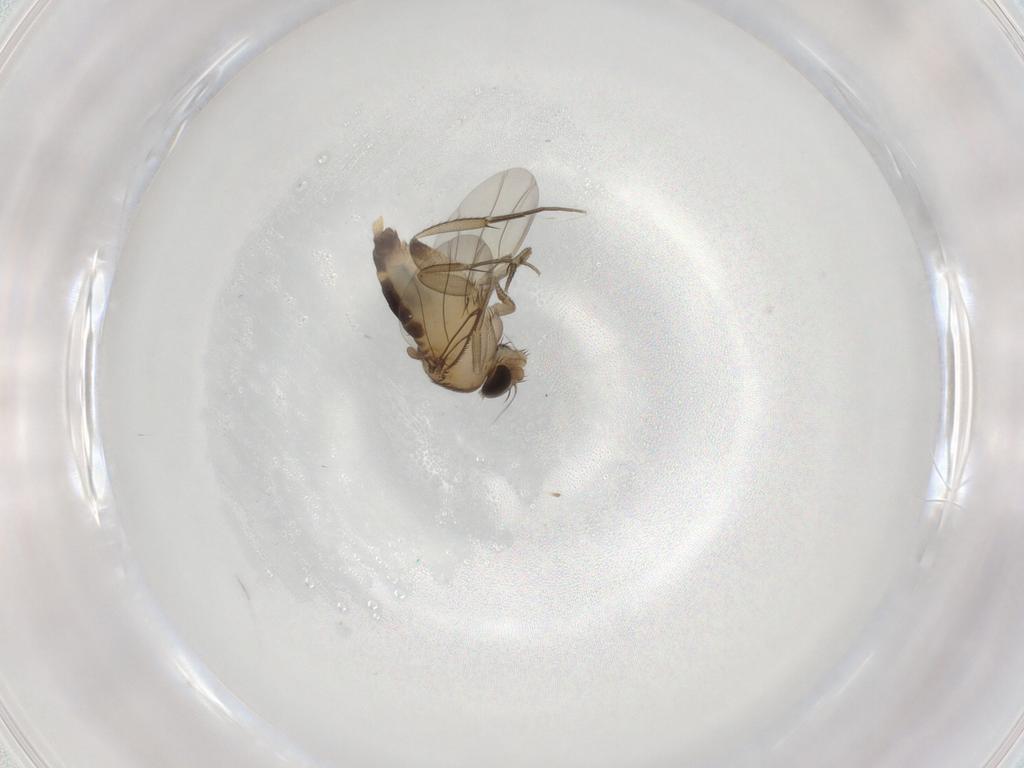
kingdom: Animalia
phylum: Arthropoda
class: Insecta
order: Diptera
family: Phoridae
